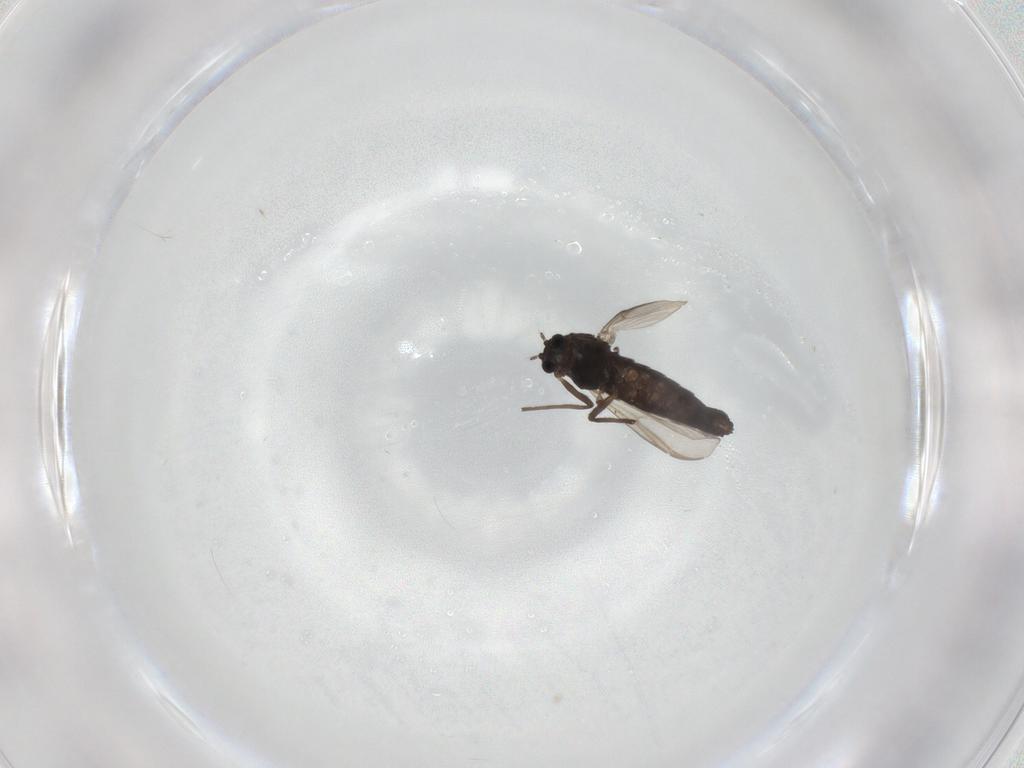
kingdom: Animalia
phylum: Arthropoda
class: Insecta
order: Diptera
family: Chironomidae
